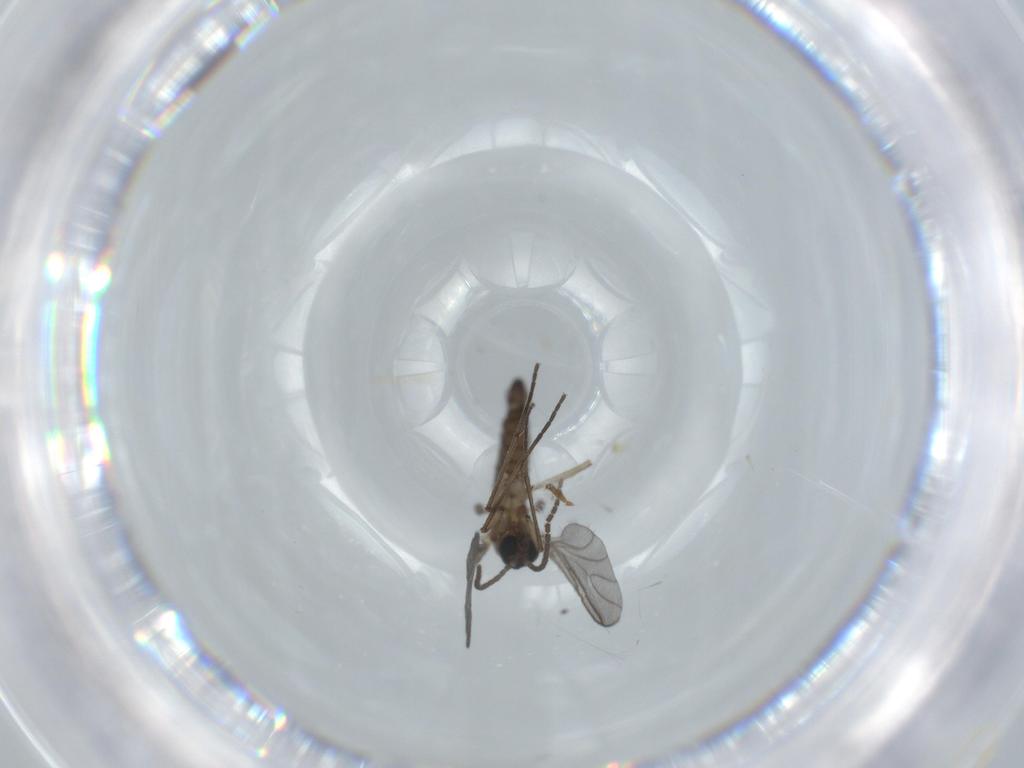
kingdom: Animalia
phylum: Arthropoda
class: Insecta
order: Diptera
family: Sciaridae
